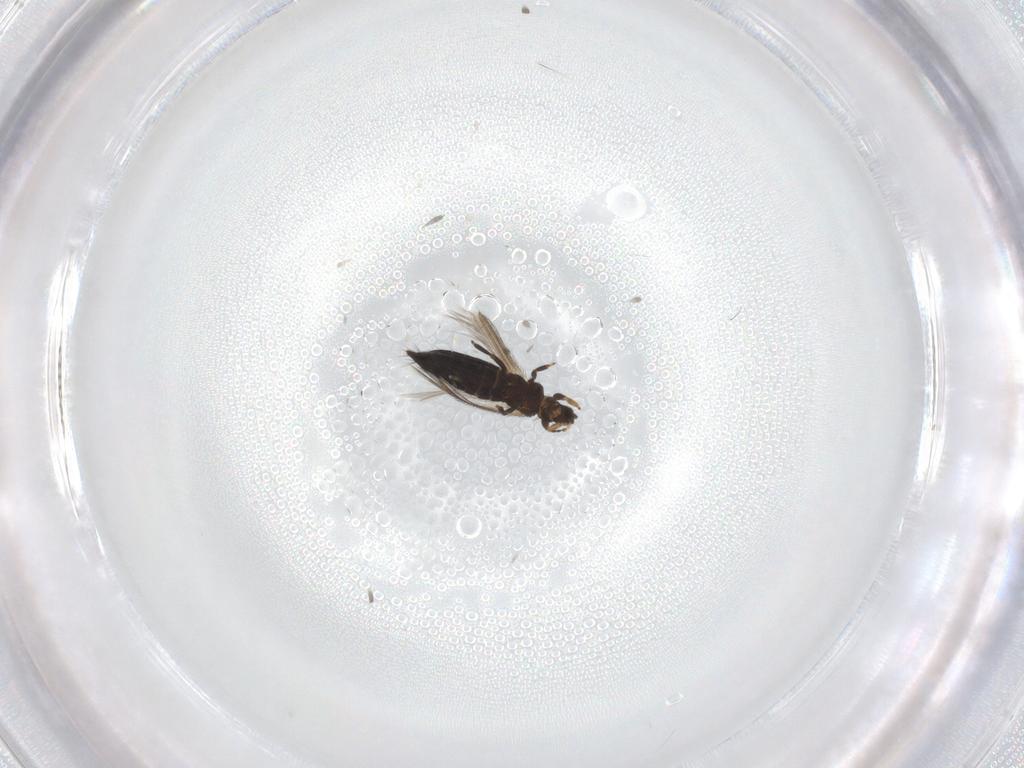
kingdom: Animalia
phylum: Arthropoda
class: Insecta
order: Thysanoptera
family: Thripidae
